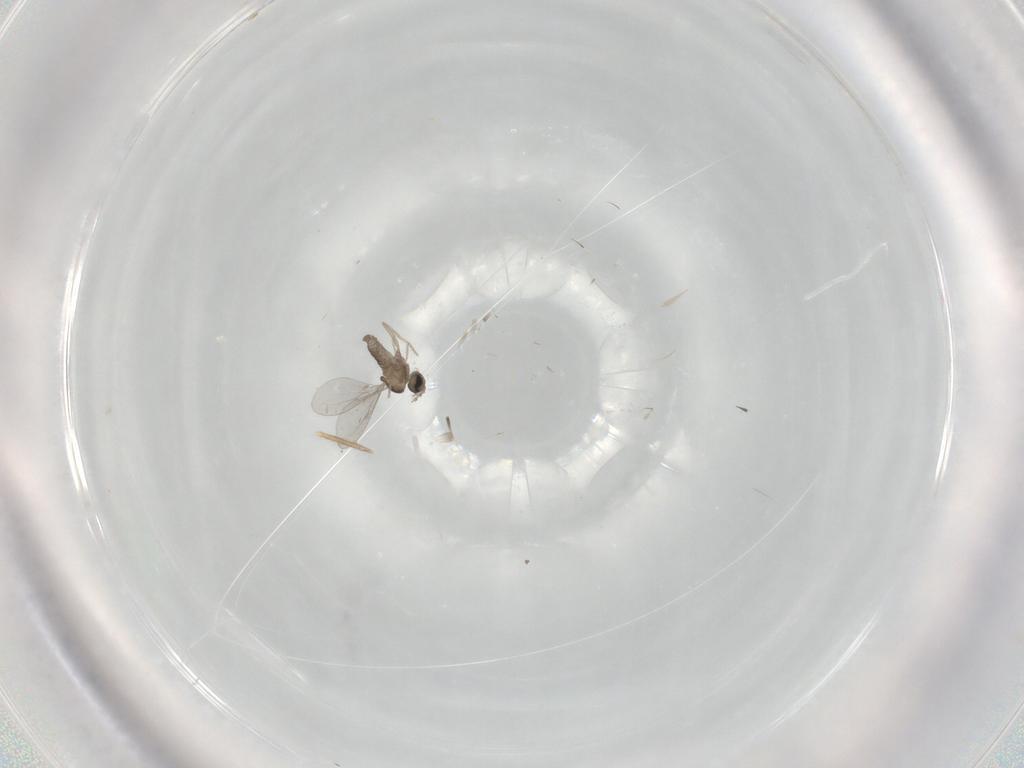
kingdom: Animalia
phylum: Arthropoda
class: Insecta
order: Diptera
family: Cecidomyiidae
